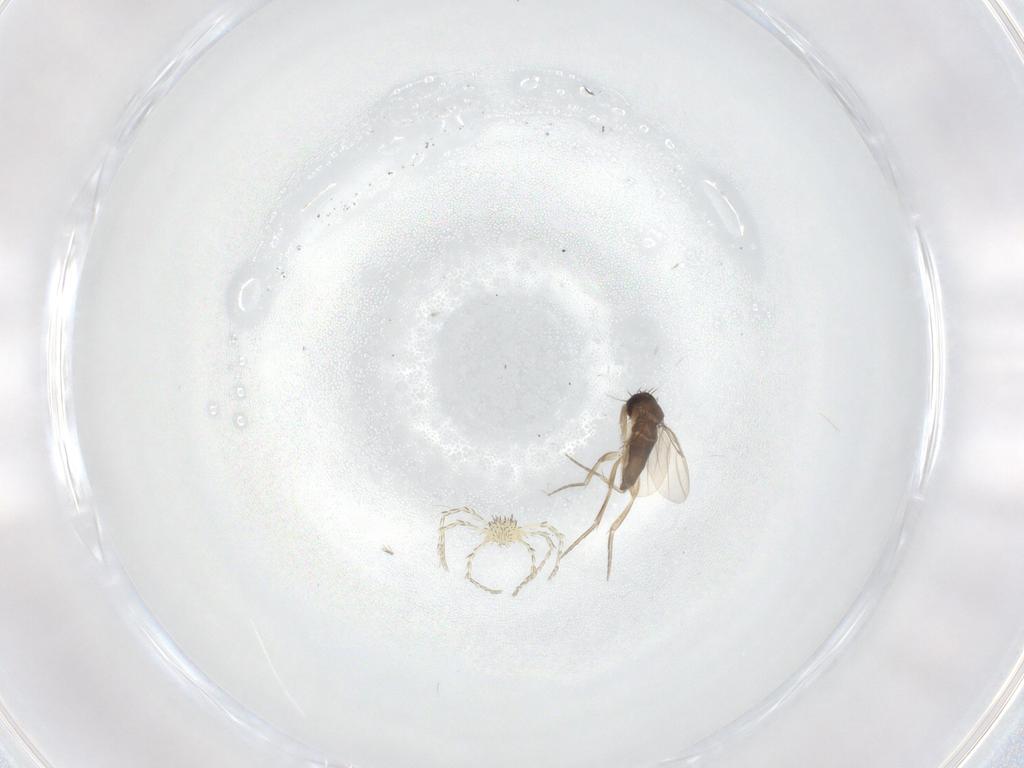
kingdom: Animalia
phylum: Arthropoda
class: Insecta
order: Diptera
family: Phoridae
